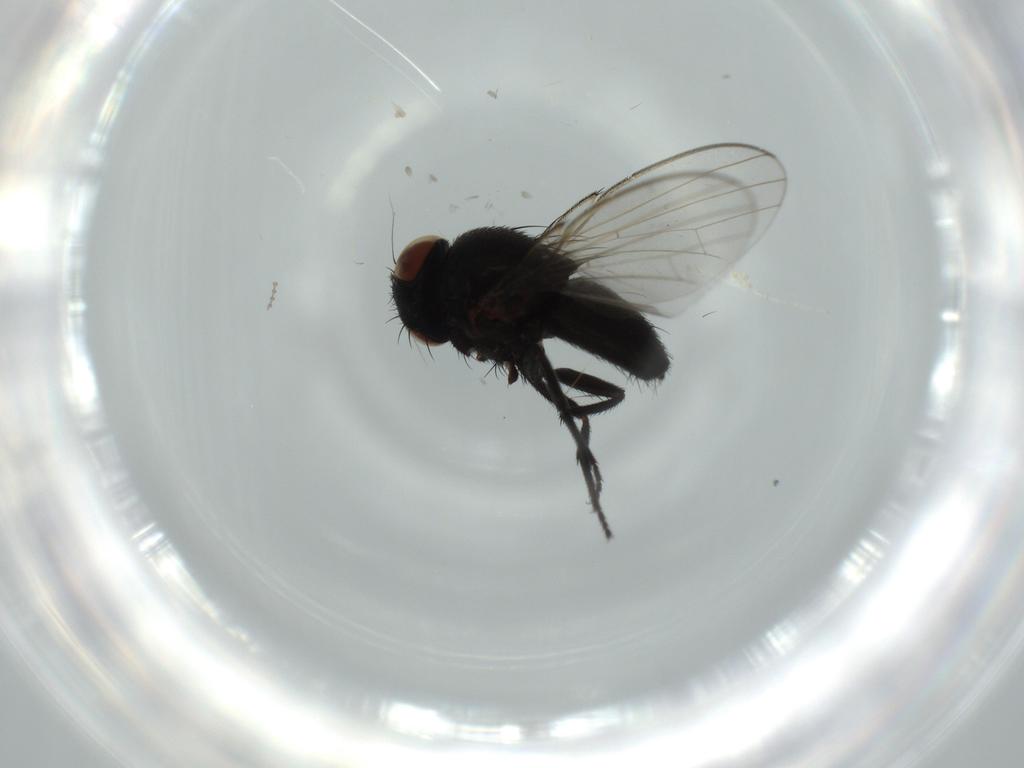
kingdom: Animalia
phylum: Arthropoda
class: Insecta
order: Diptera
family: Milichiidae
